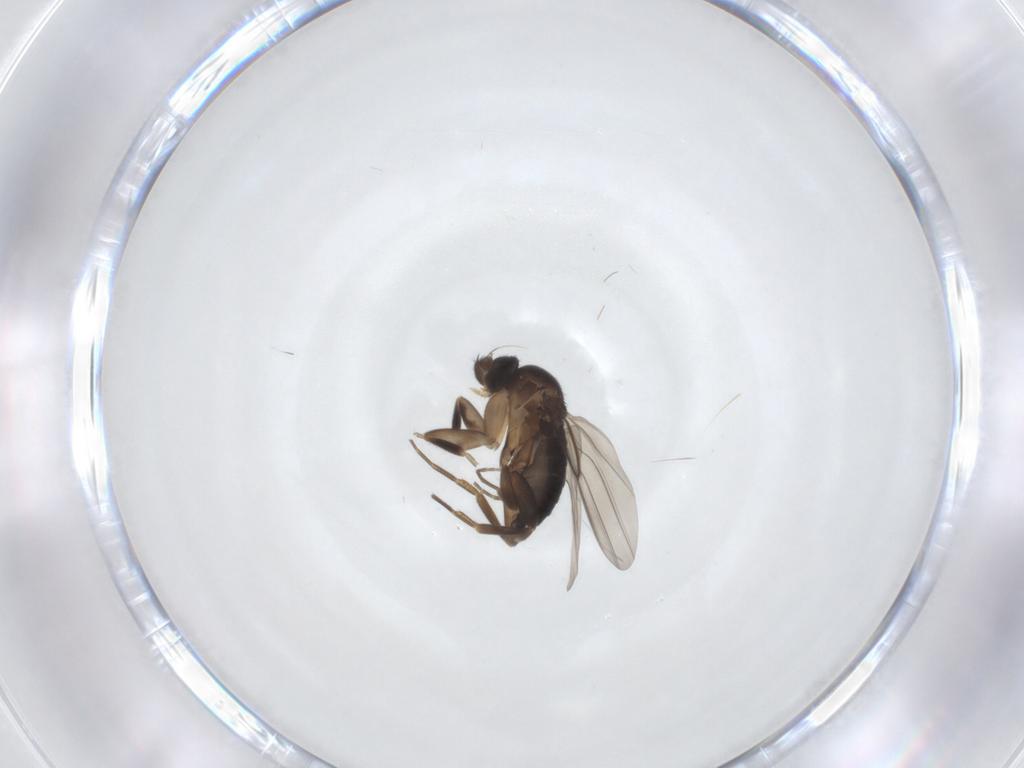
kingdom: Animalia
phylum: Arthropoda
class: Insecta
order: Diptera
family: Phoridae
